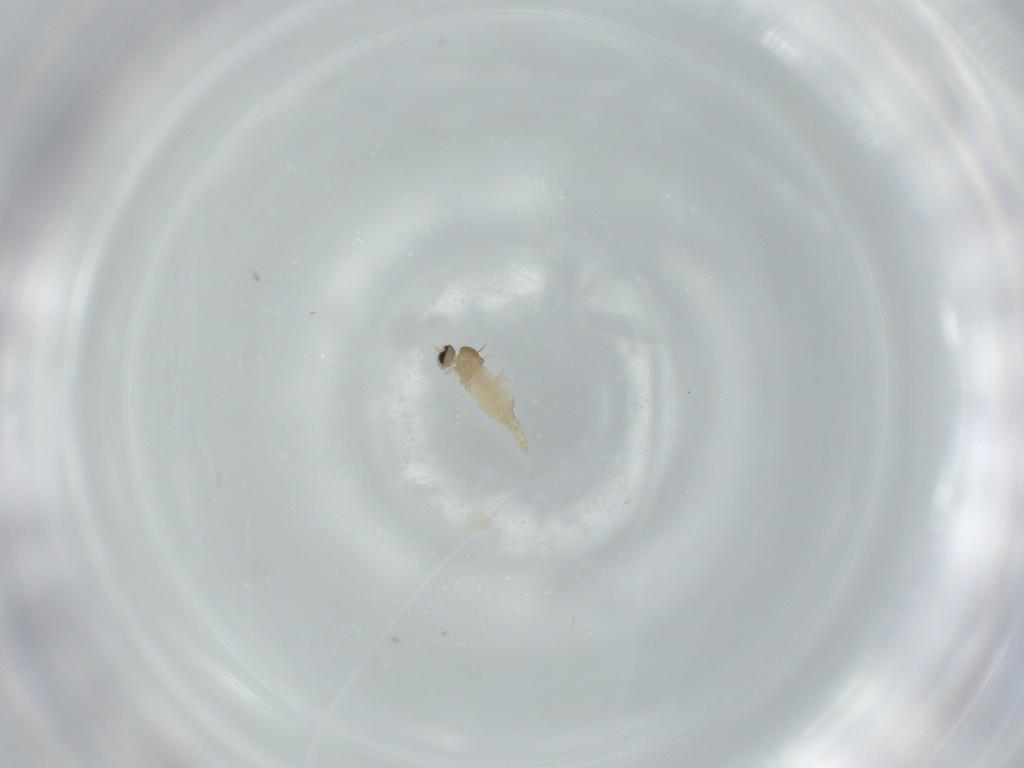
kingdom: Animalia
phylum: Arthropoda
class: Insecta
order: Diptera
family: Cecidomyiidae
